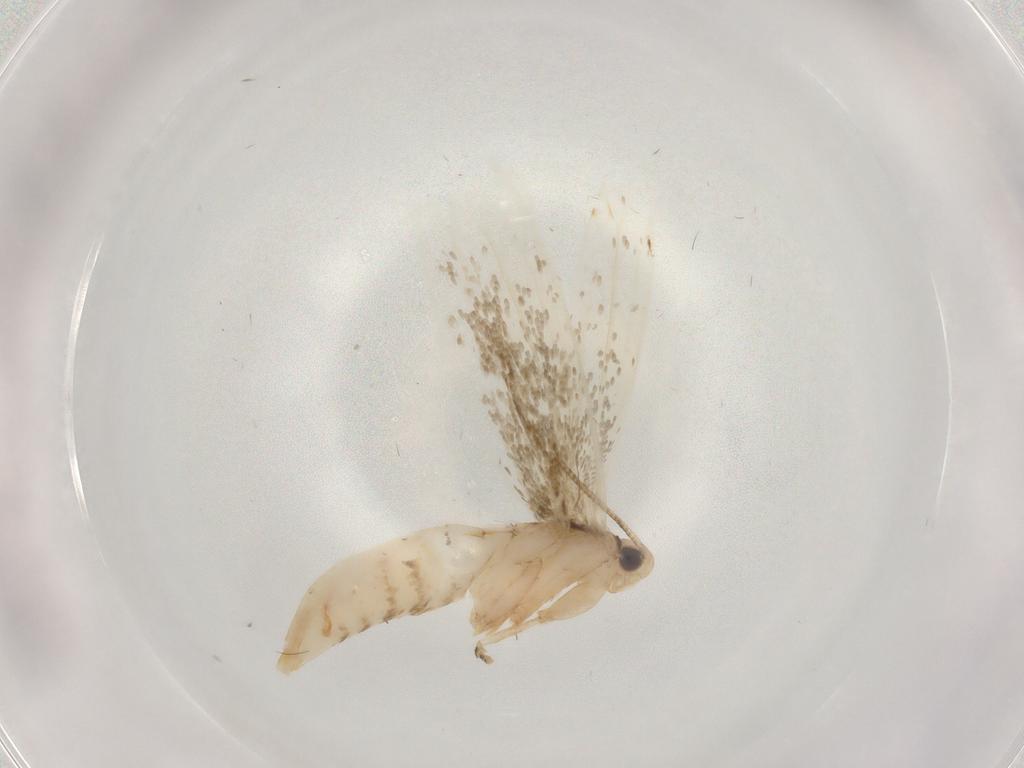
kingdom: Animalia
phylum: Arthropoda
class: Insecta
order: Lepidoptera
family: Tineidae
